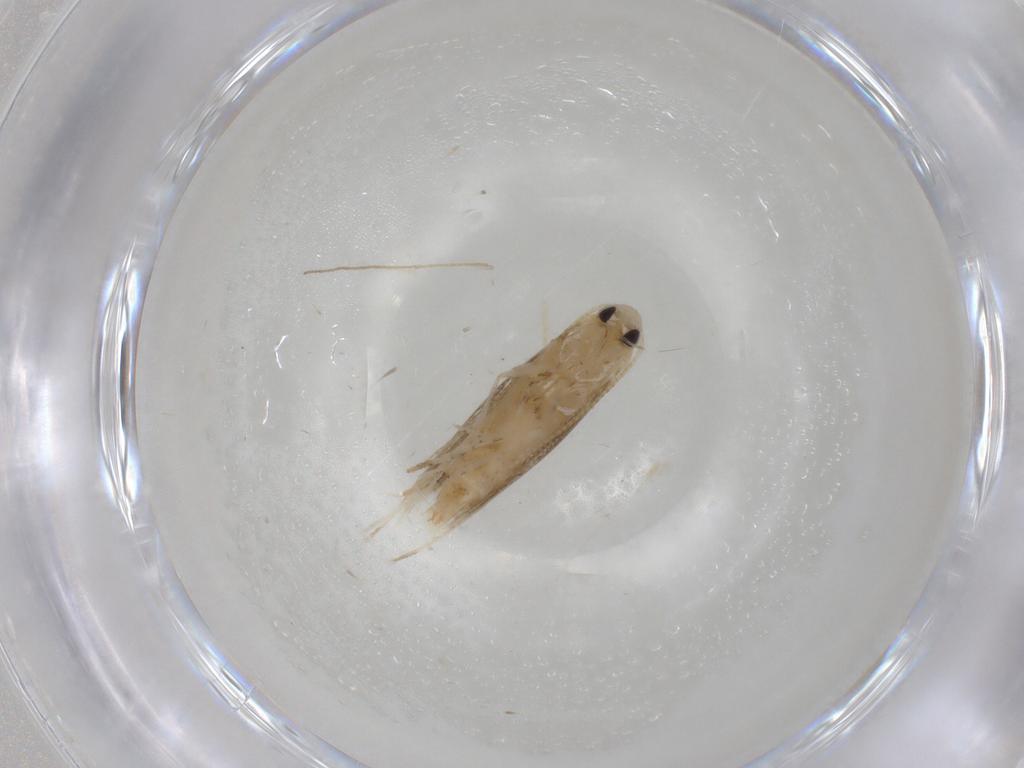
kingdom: Animalia
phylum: Arthropoda
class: Insecta
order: Lepidoptera
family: Gracillariidae
